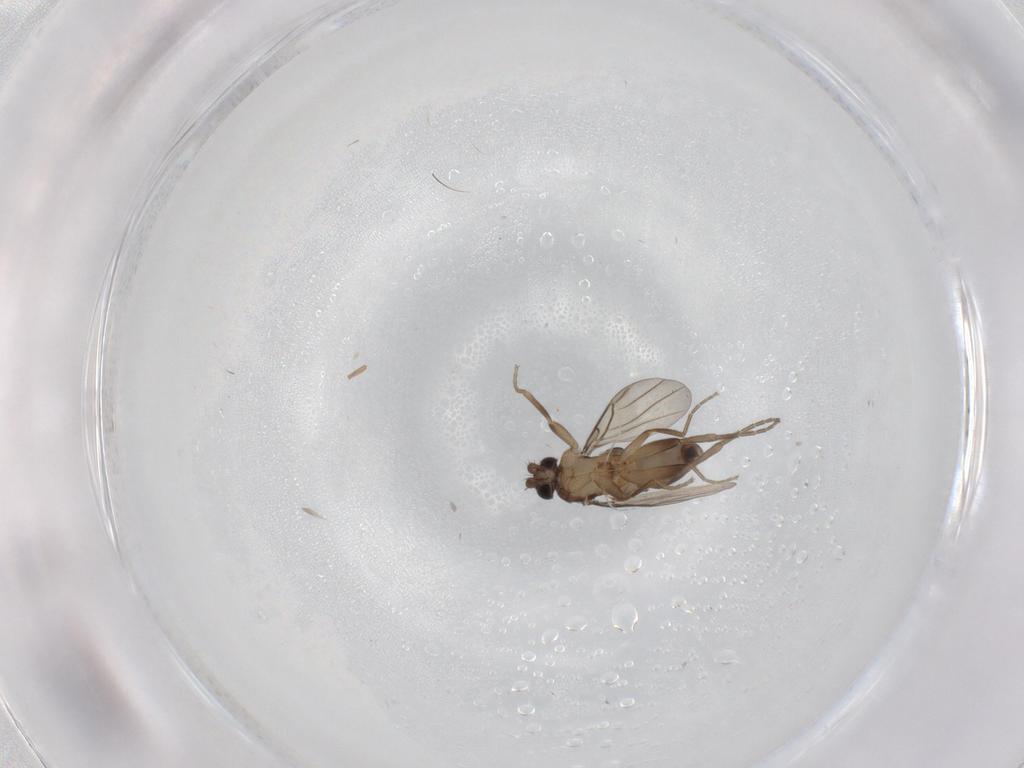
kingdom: Animalia
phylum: Arthropoda
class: Insecta
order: Diptera
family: Phoridae
